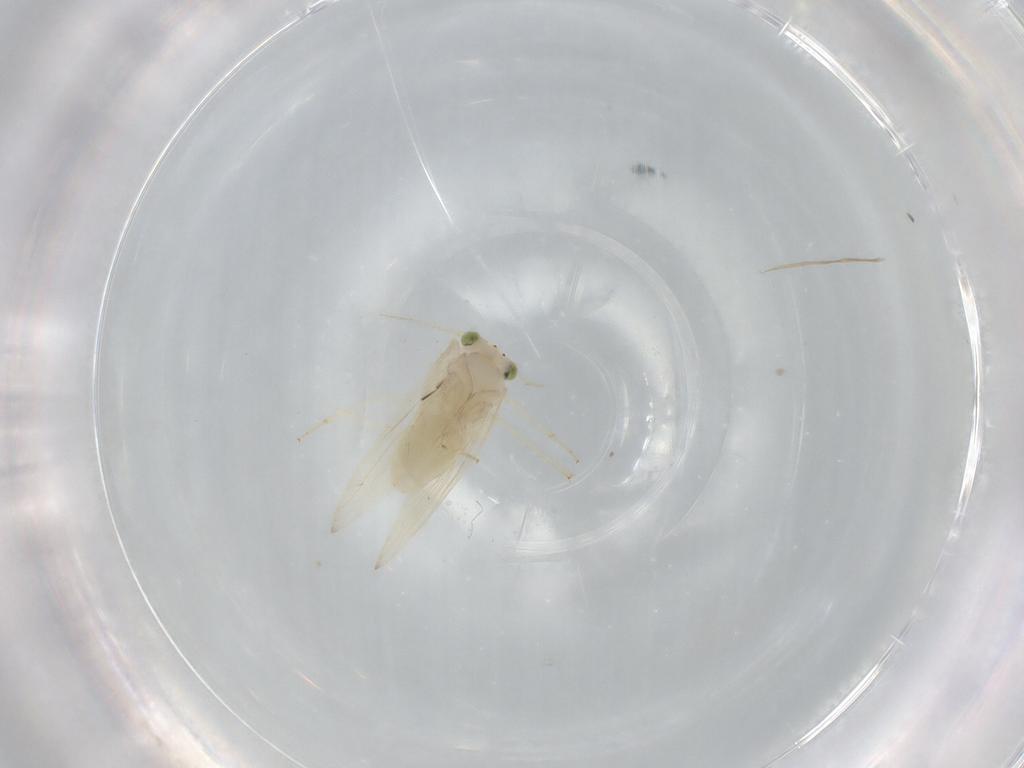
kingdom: Animalia
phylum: Arthropoda
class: Insecta
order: Psocodea
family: Lepidopsocidae
